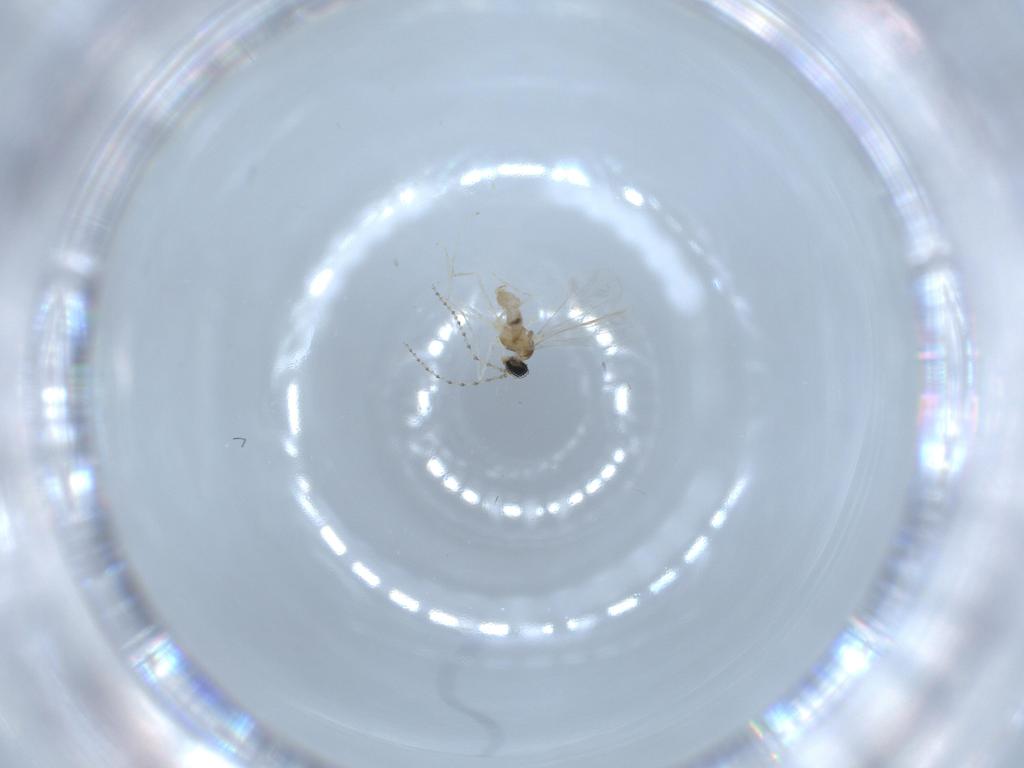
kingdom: Animalia
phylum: Arthropoda
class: Insecta
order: Diptera
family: Cecidomyiidae
